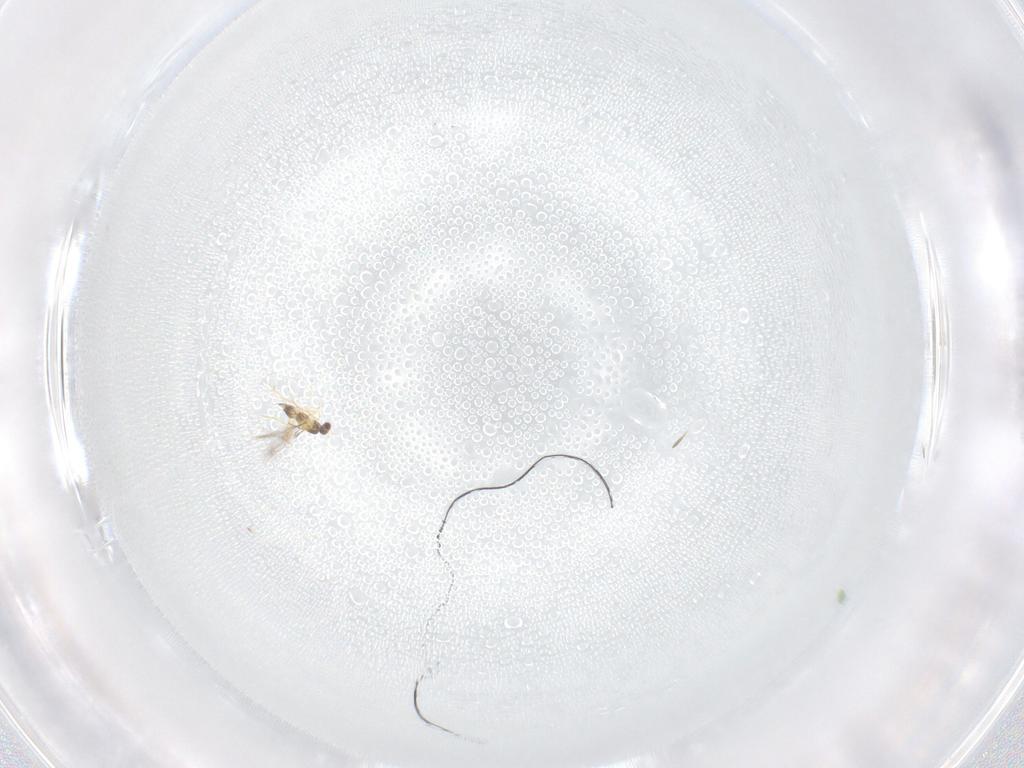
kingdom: Animalia
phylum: Arthropoda
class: Insecta
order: Hymenoptera
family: Mymaridae
